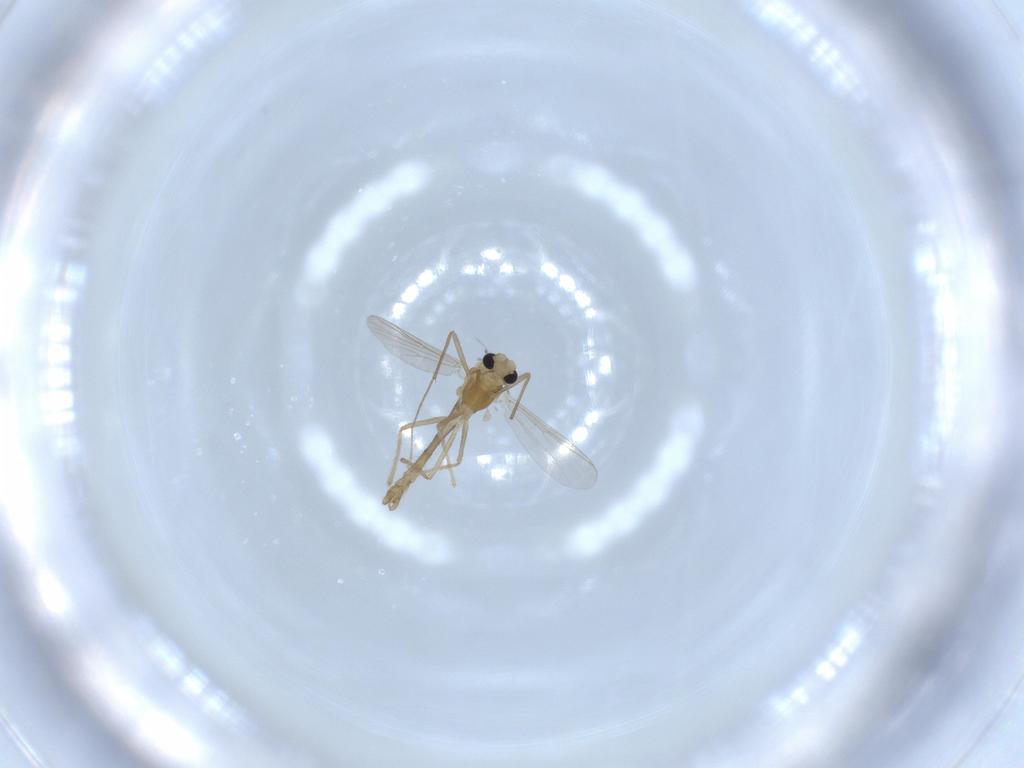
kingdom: Animalia
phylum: Arthropoda
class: Insecta
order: Diptera
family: Chironomidae
